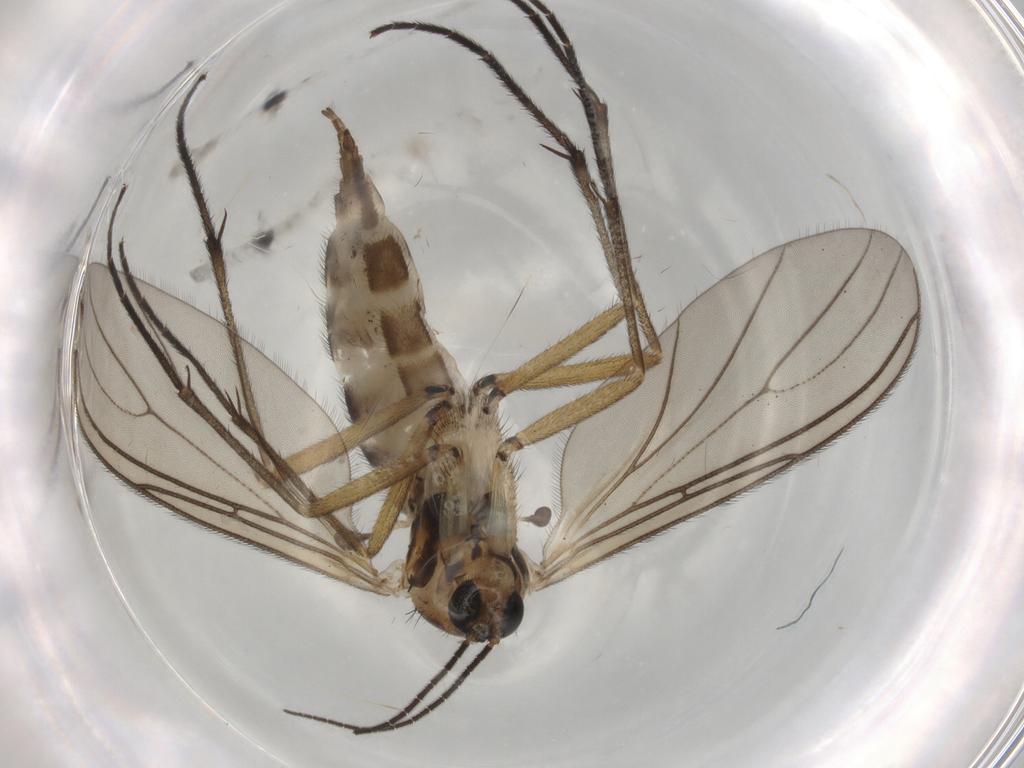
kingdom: Animalia
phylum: Arthropoda
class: Insecta
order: Diptera
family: Sciaridae
